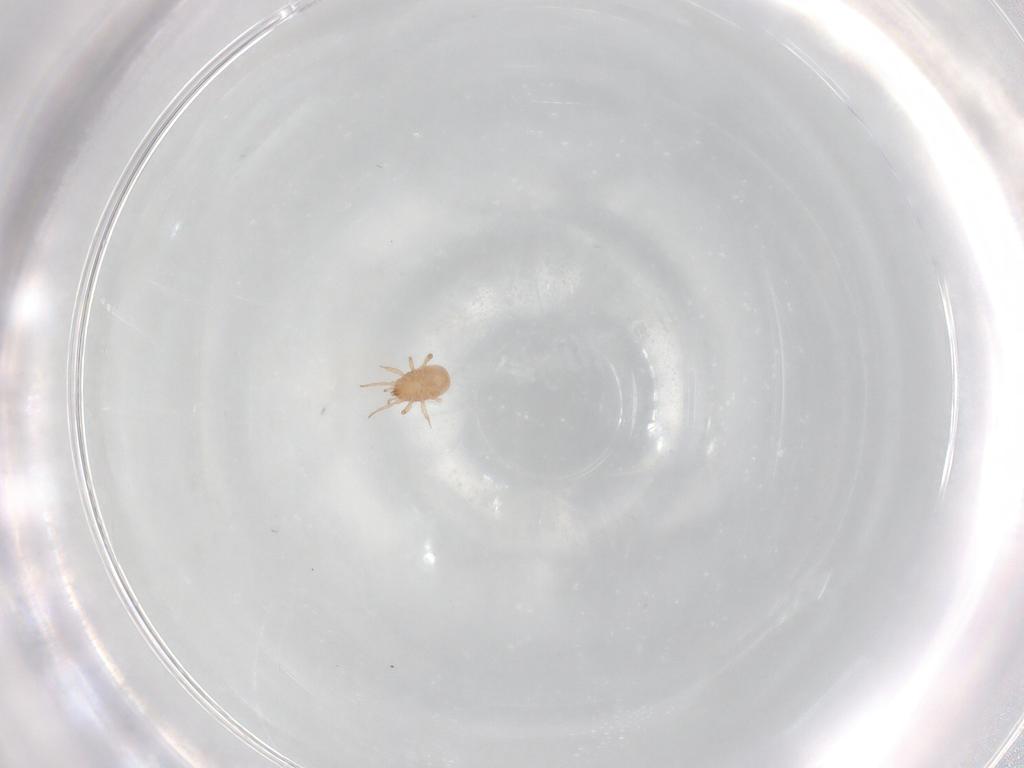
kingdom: Animalia
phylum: Arthropoda
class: Arachnida
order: Mesostigmata
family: Blattisociidae
